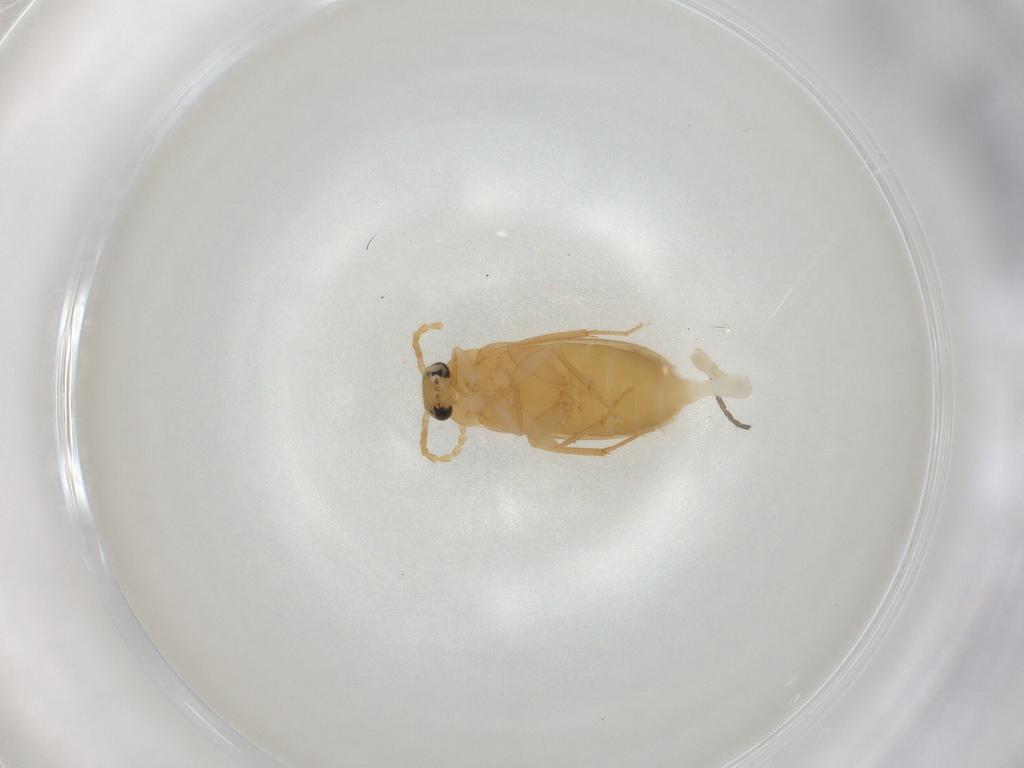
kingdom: Animalia
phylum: Arthropoda
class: Insecta
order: Coleoptera
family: Scraptiidae
